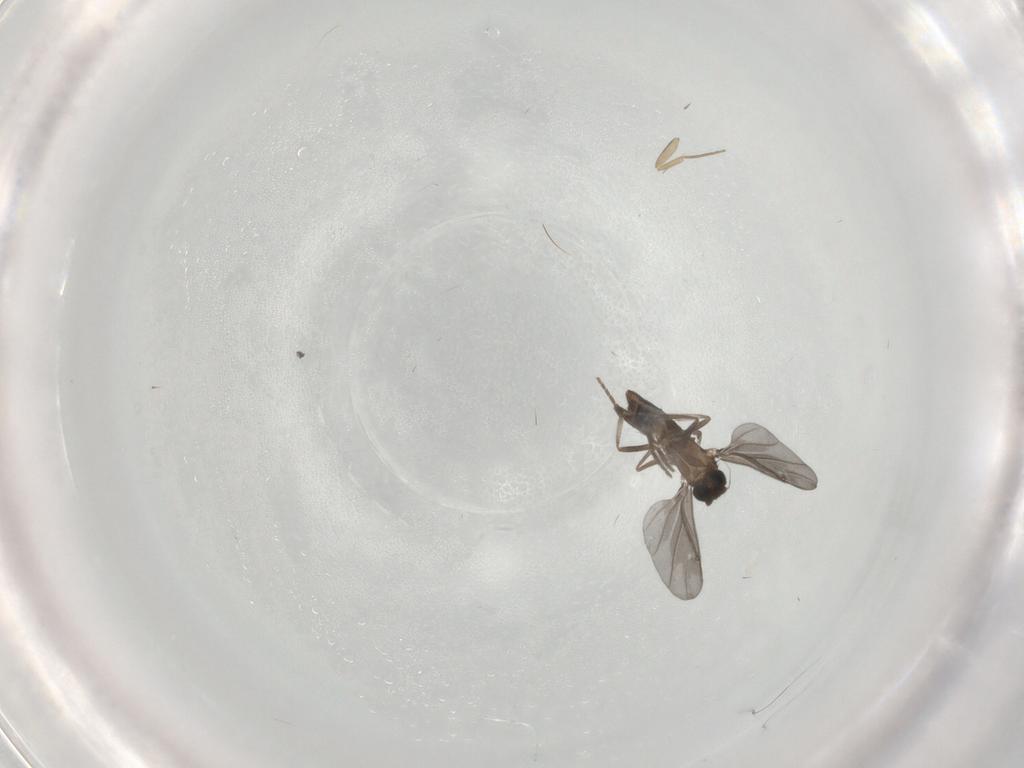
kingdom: Animalia
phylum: Arthropoda
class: Insecta
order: Diptera
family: Phoridae
